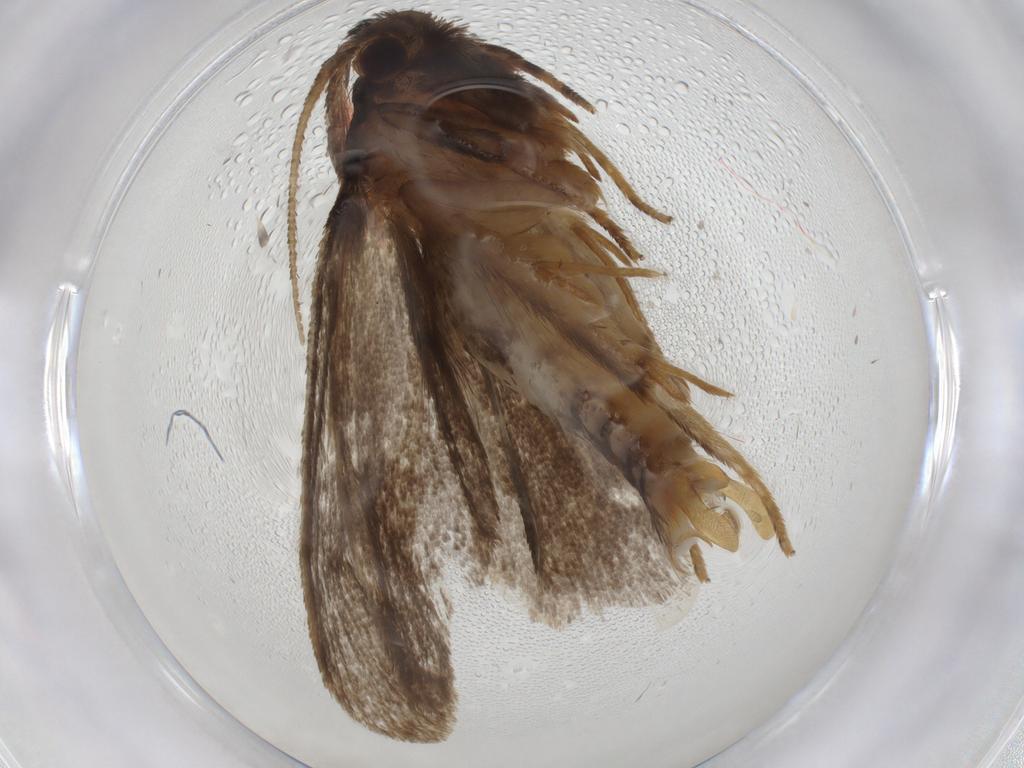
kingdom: Animalia
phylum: Arthropoda
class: Insecta
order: Lepidoptera
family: Tineidae
